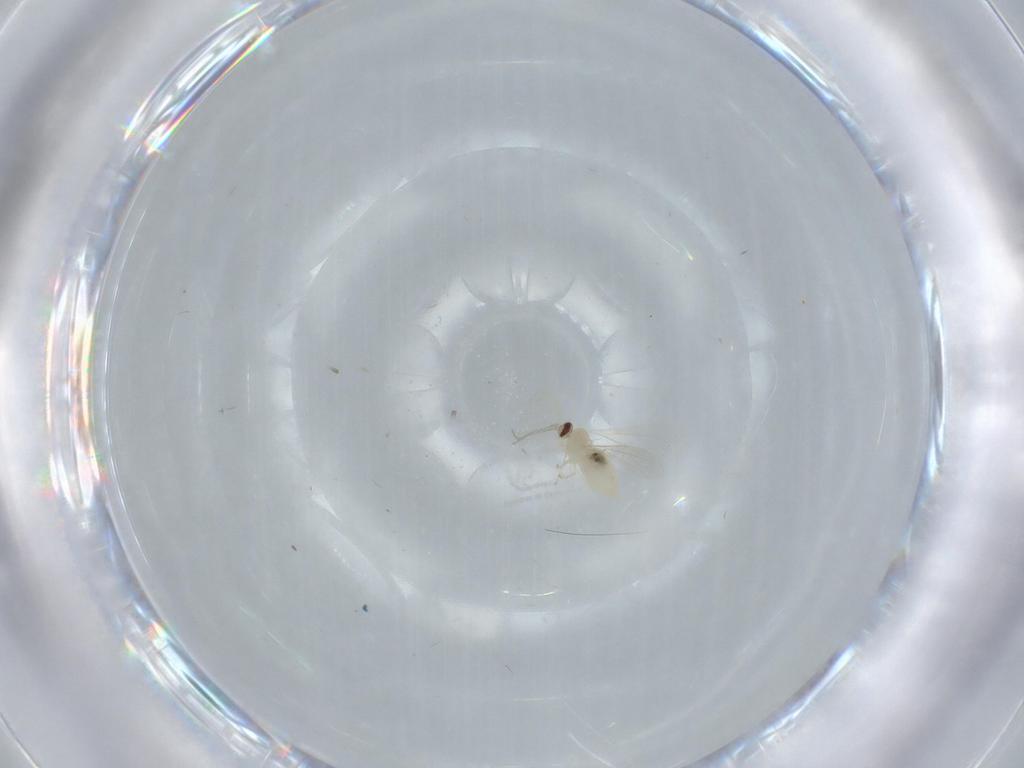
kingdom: Animalia
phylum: Arthropoda
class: Insecta
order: Diptera
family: Cecidomyiidae
